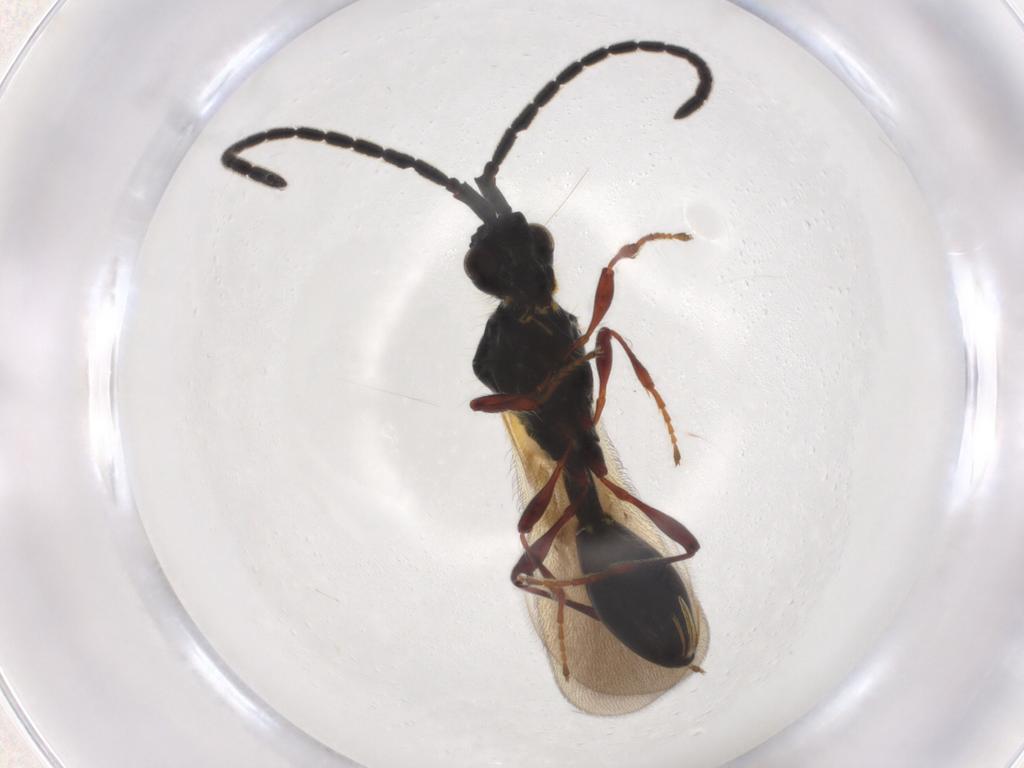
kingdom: Animalia
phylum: Arthropoda
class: Insecta
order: Hymenoptera
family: Diapriidae
